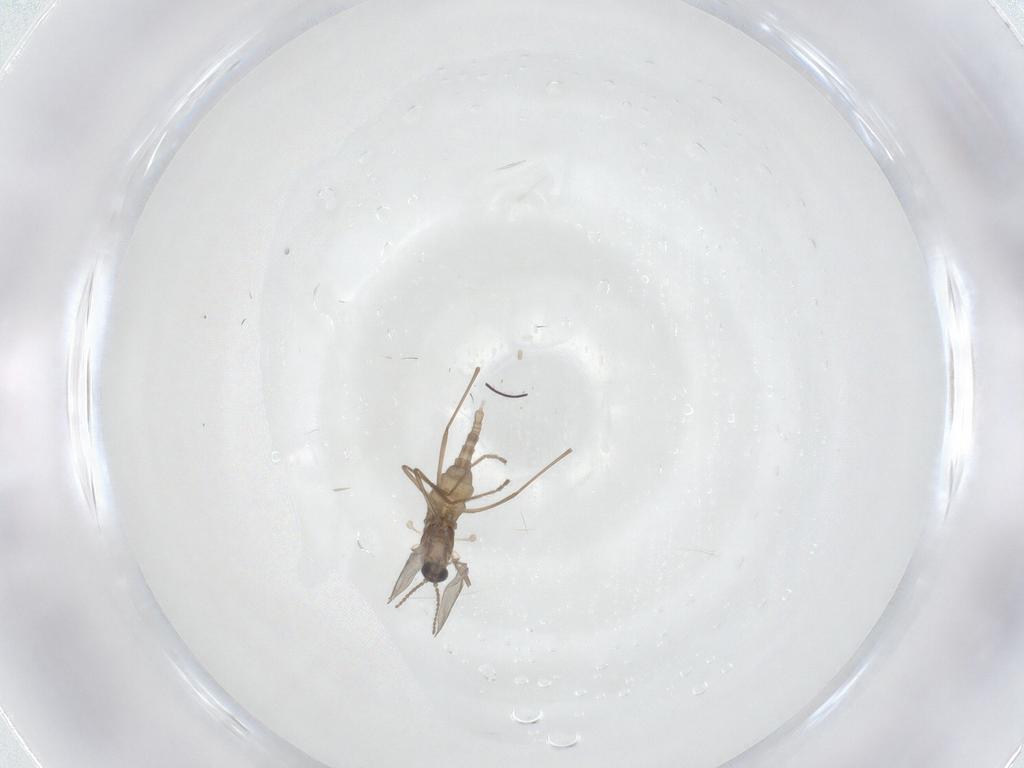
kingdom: Animalia
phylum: Arthropoda
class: Insecta
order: Diptera
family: Cecidomyiidae
